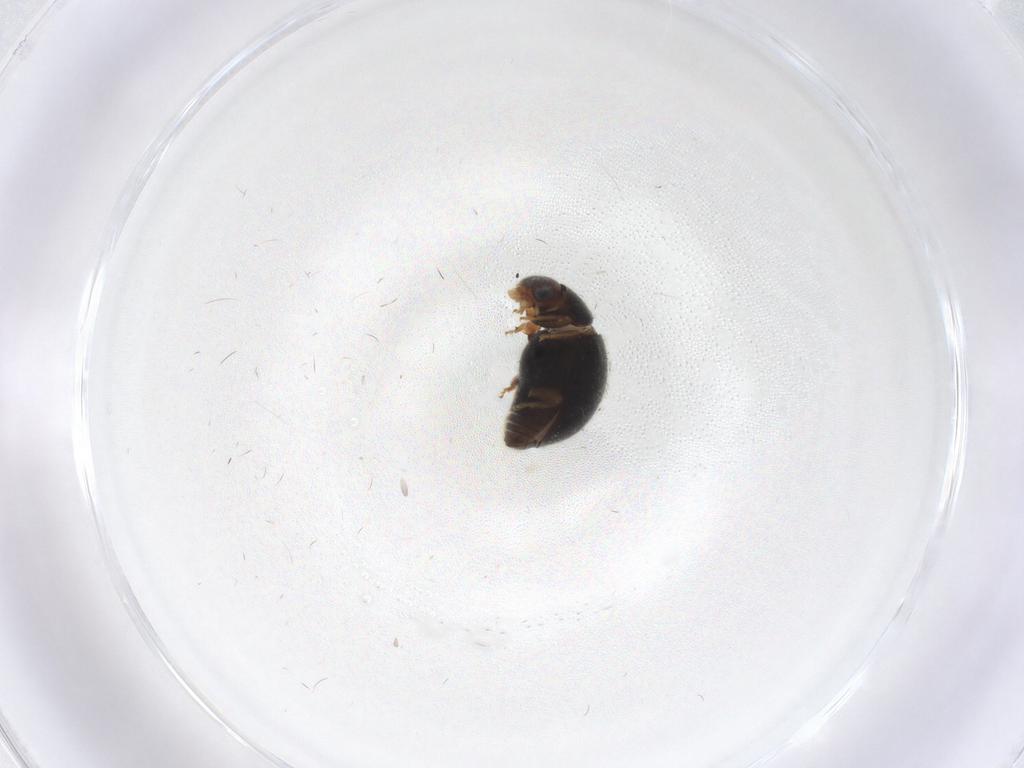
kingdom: Animalia
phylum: Arthropoda
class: Insecta
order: Coleoptera
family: Coccinellidae
